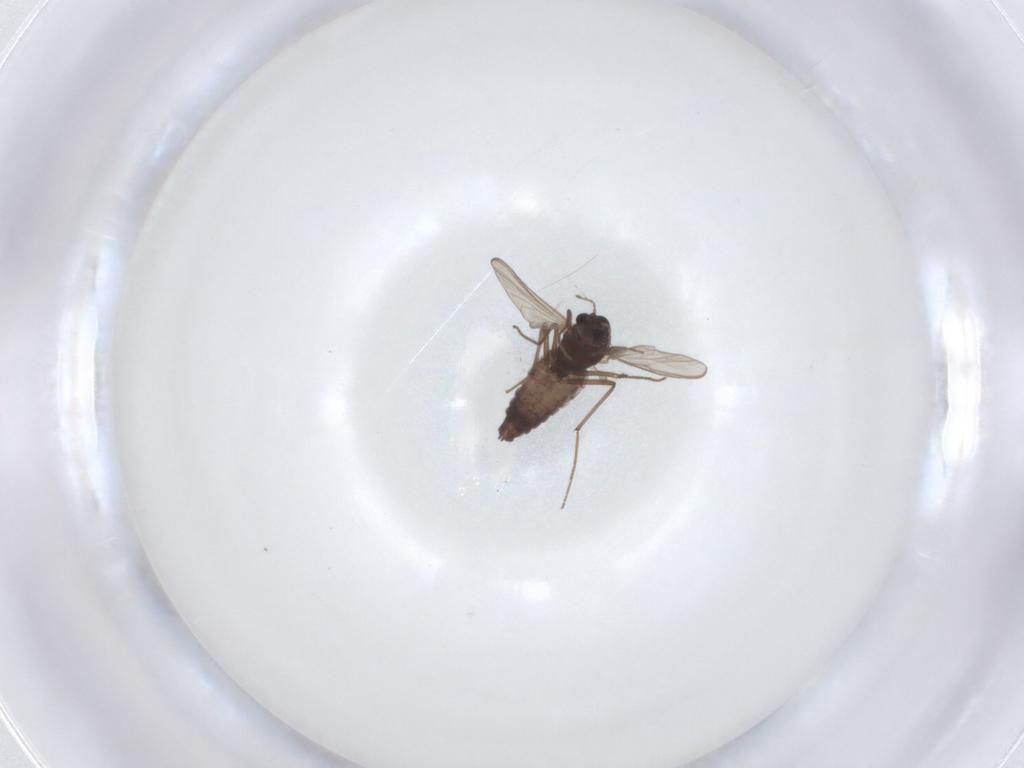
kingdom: Animalia
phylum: Arthropoda
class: Insecta
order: Diptera
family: Chironomidae
